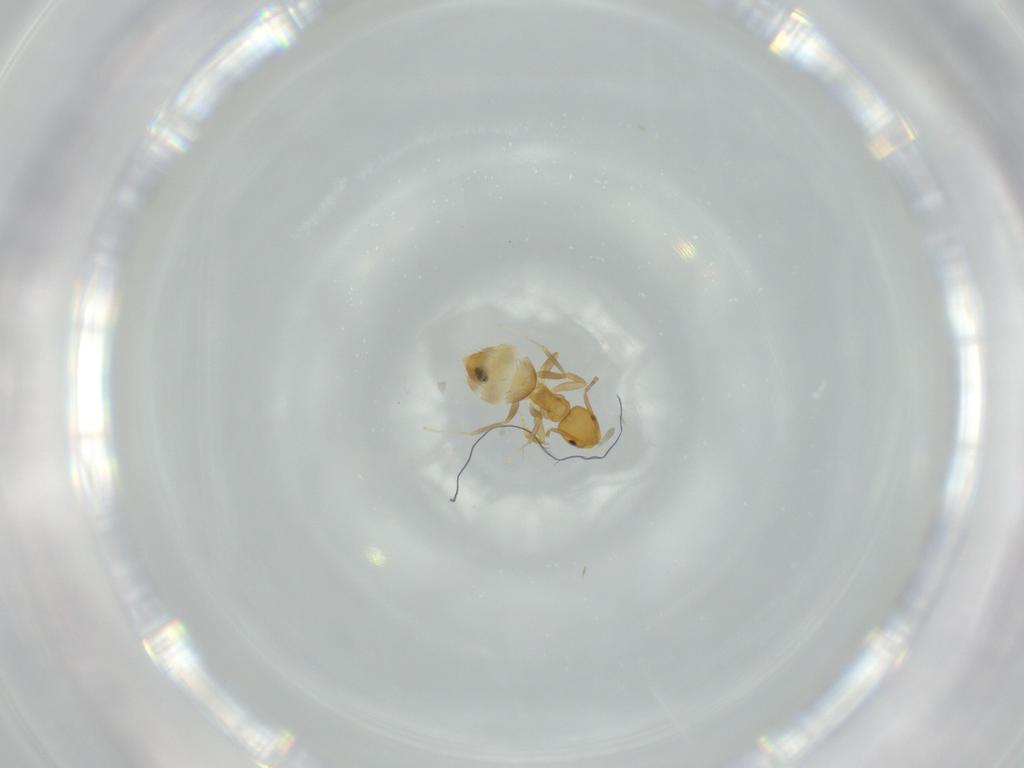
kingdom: Animalia
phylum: Arthropoda
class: Insecta
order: Hymenoptera
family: Formicidae
